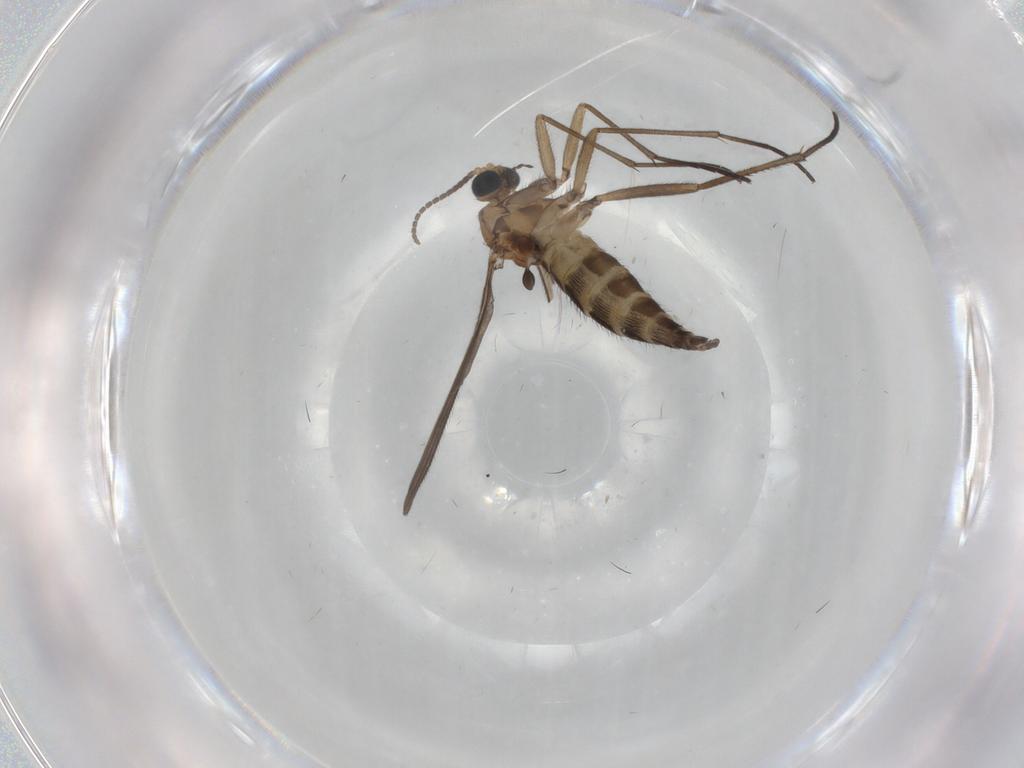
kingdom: Animalia
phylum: Arthropoda
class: Insecta
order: Diptera
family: Sciaridae
